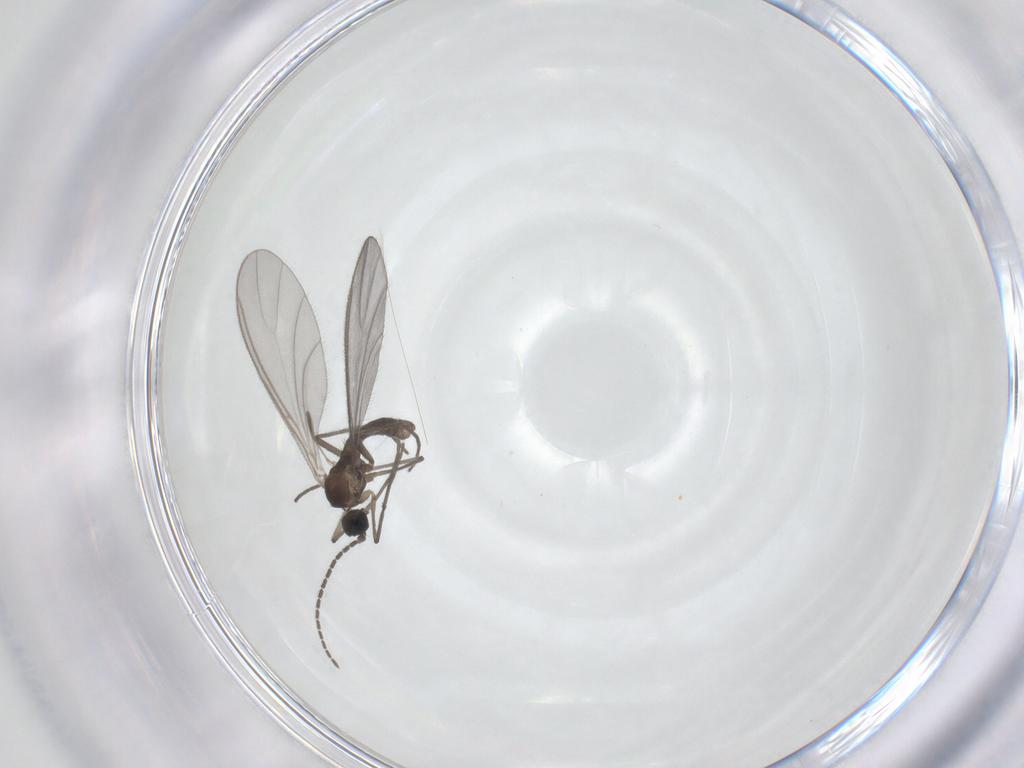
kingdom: Animalia
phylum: Arthropoda
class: Insecta
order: Diptera
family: Sciaridae
